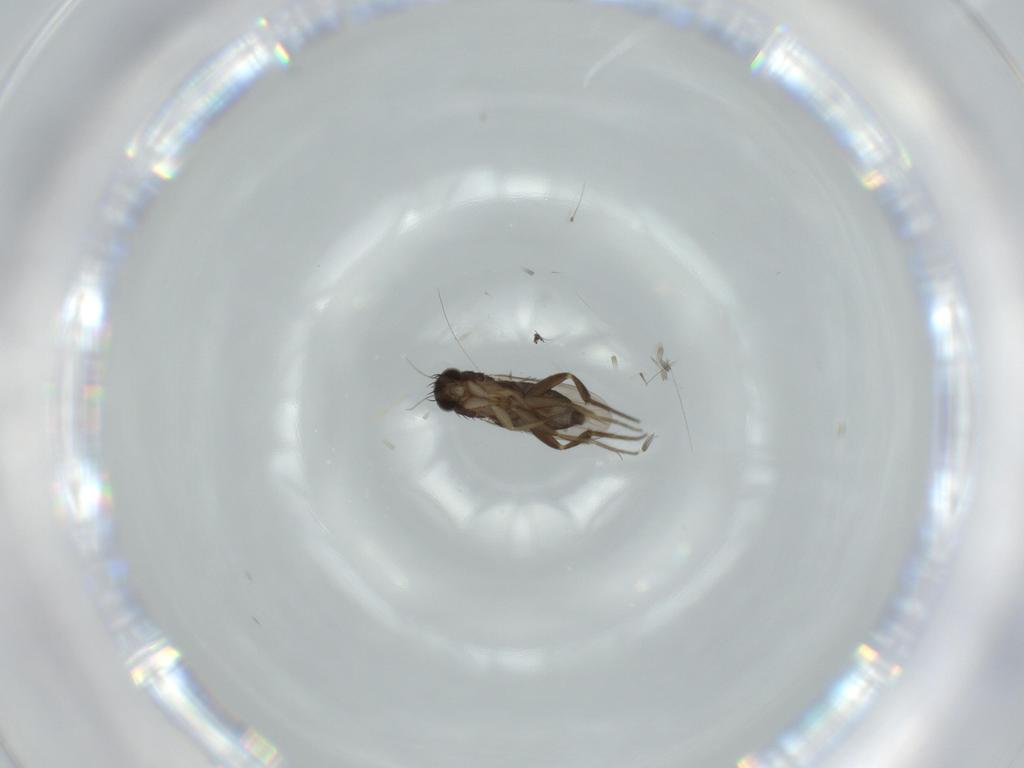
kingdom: Animalia
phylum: Arthropoda
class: Insecta
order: Diptera
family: Phoridae
